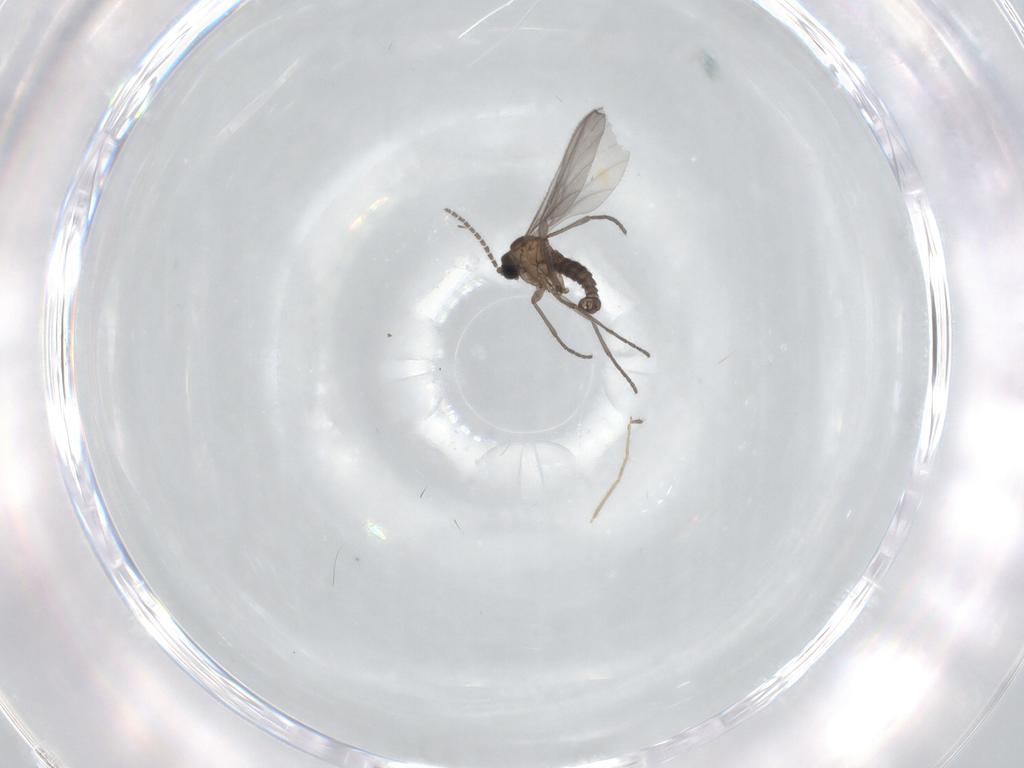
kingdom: Animalia
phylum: Arthropoda
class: Insecta
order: Diptera
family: Sciaridae
